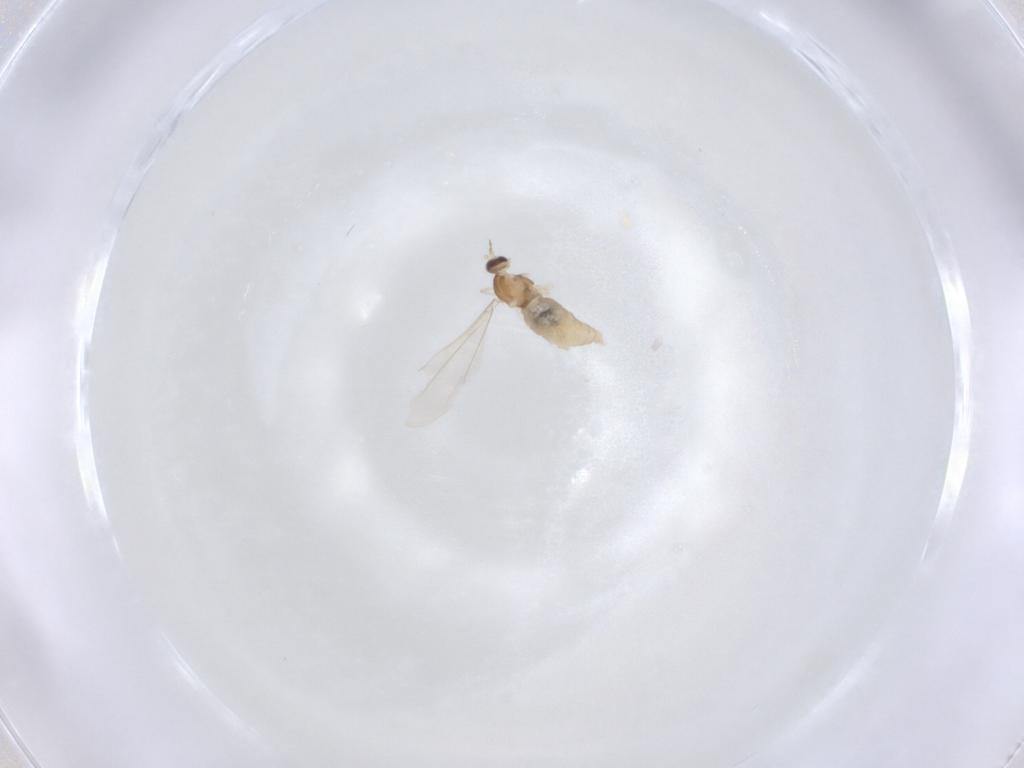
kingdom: Animalia
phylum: Arthropoda
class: Insecta
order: Diptera
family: Cecidomyiidae
